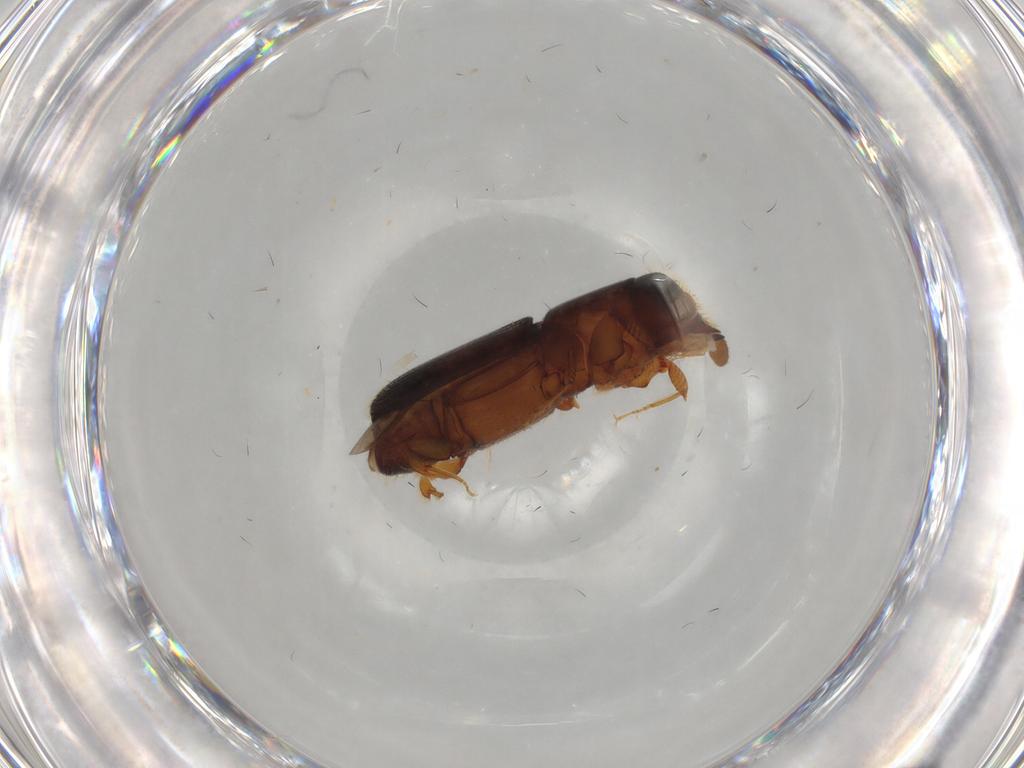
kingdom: Animalia
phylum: Arthropoda
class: Insecta
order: Coleoptera
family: Curculionidae
